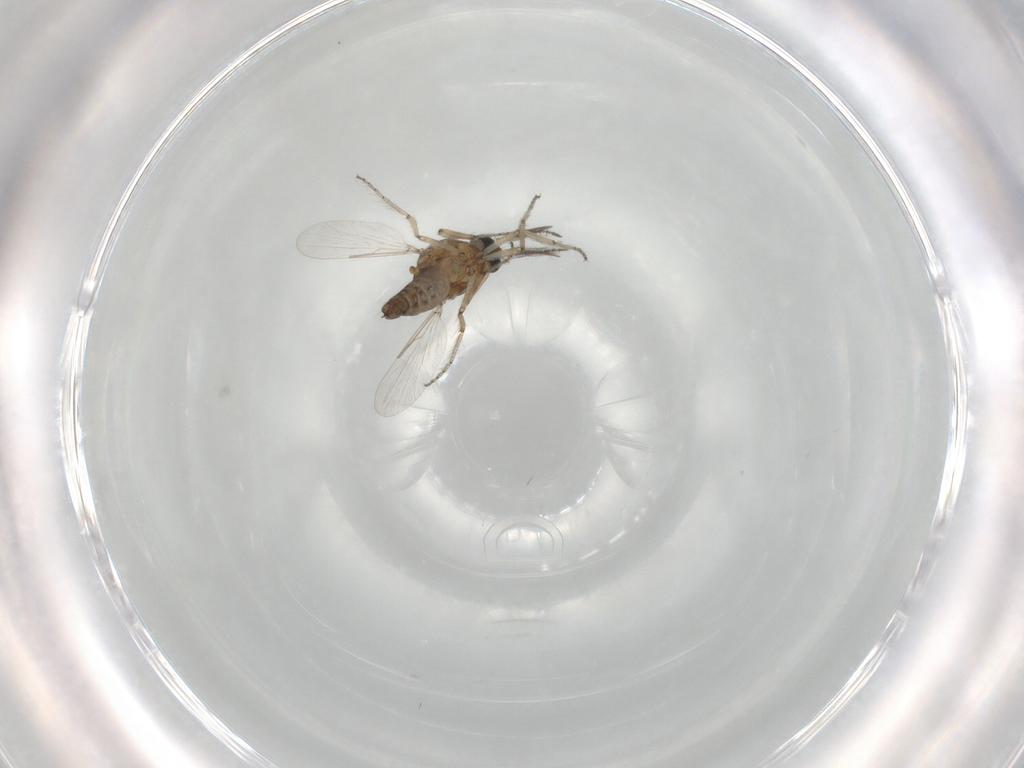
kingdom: Animalia
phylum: Arthropoda
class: Insecta
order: Diptera
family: Ceratopogonidae
